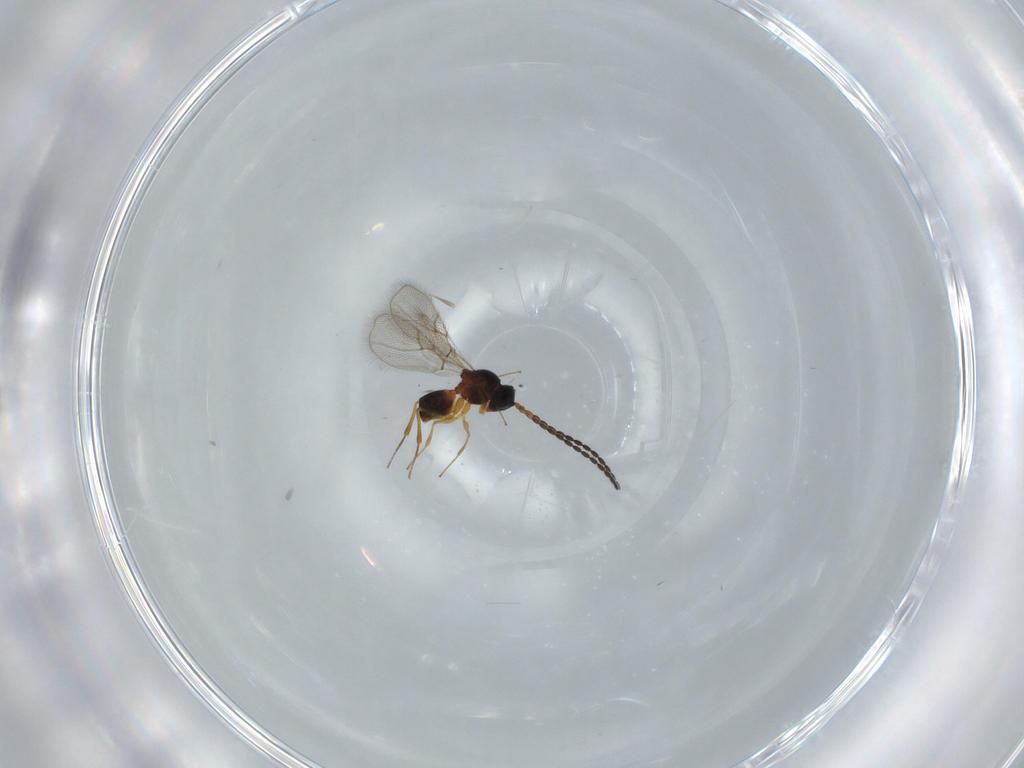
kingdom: Animalia
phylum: Arthropoda
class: Insecta
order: Hymenoptera
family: Figitidae
